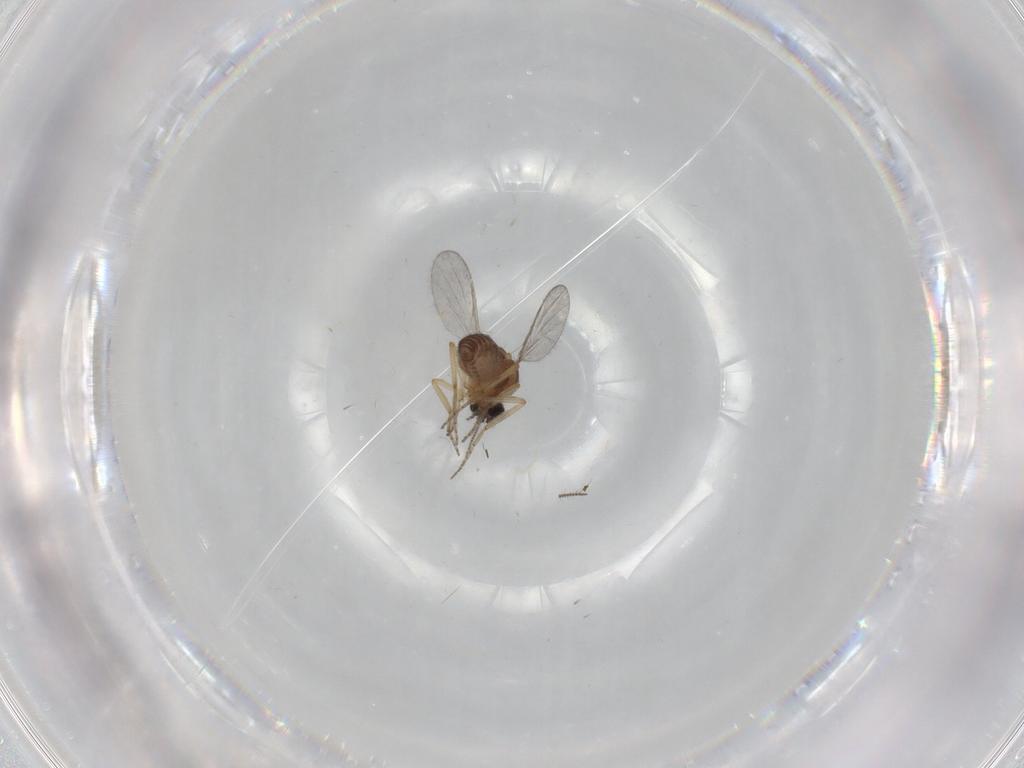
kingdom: Animalia
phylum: Arthropoda
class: Insecta
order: Diptera
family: Ceratopogonidae
